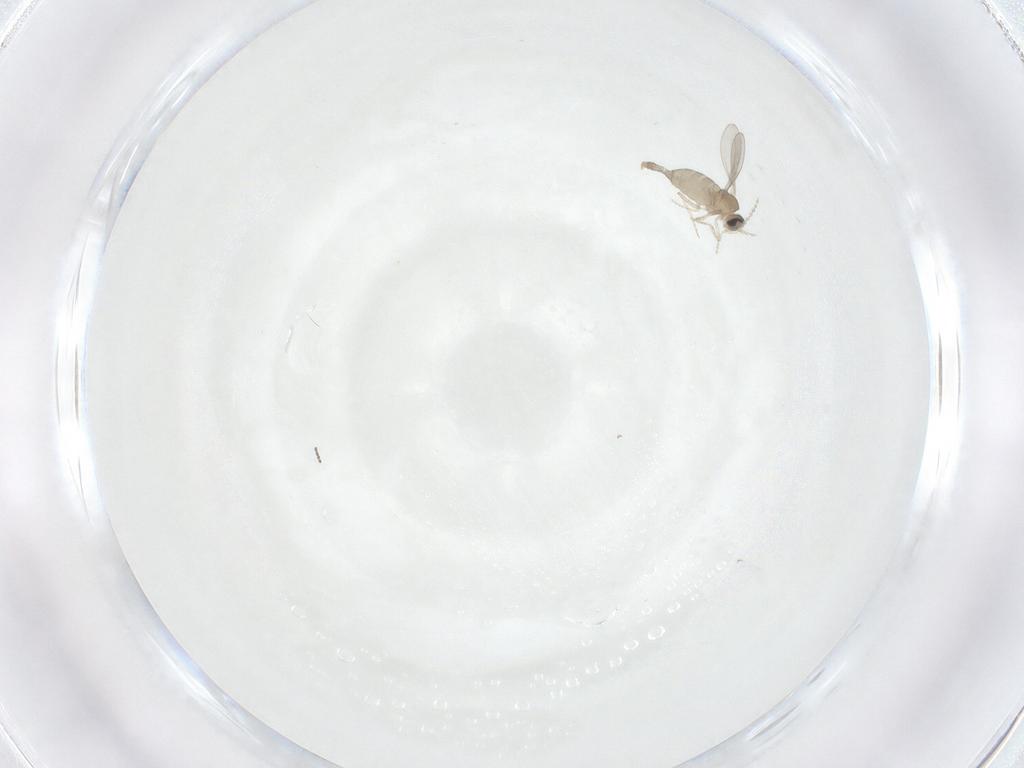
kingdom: Animalia
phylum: Arthropoda
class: Insecta
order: Diptera
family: Cecidomyiidae
